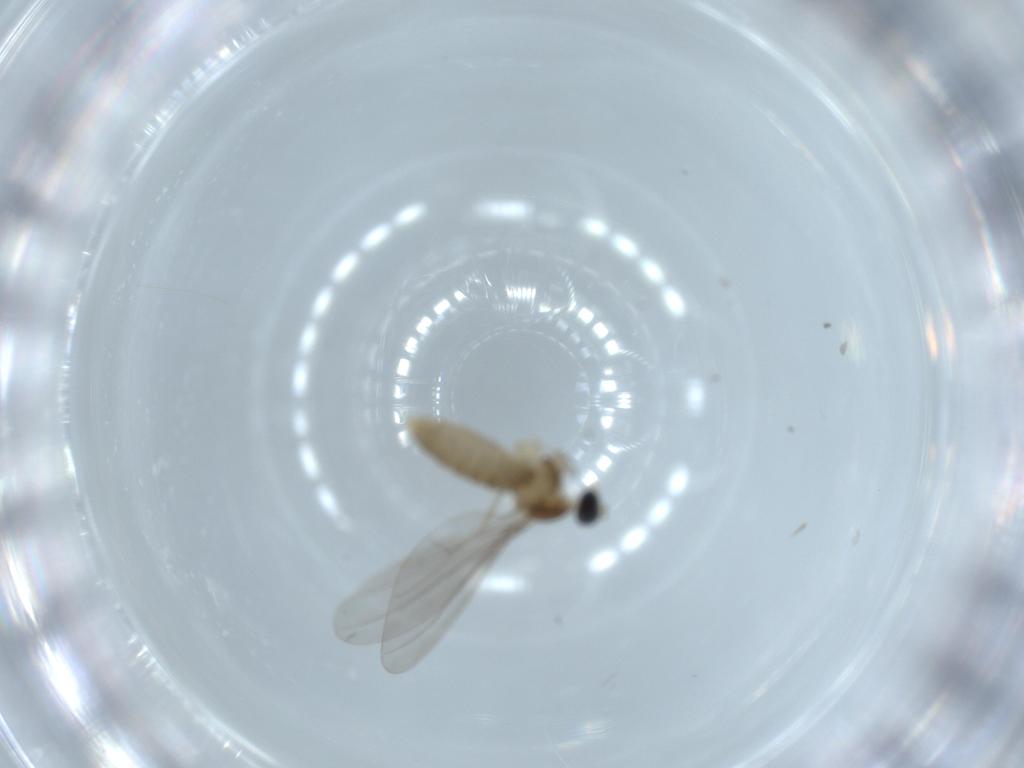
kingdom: Animalia
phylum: Arthropoda
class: Insecta
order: Diptera
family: Cecidomyiidae
